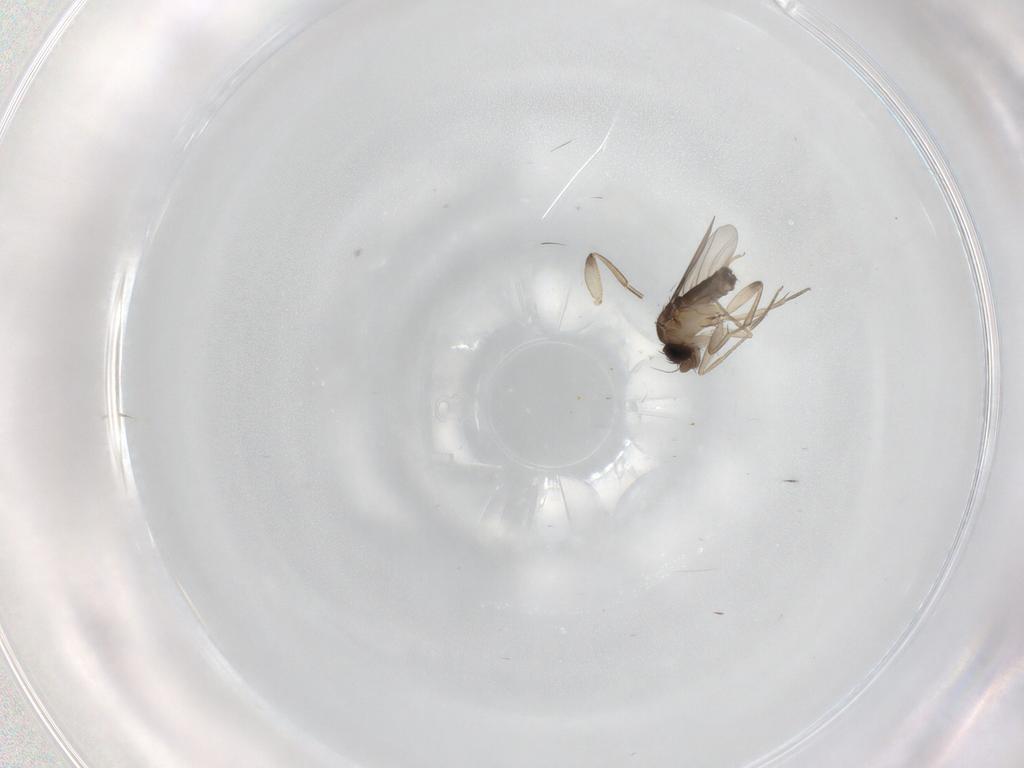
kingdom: Animalia
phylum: Arthropoda
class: Insecta
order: Diptera
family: Phoridae
